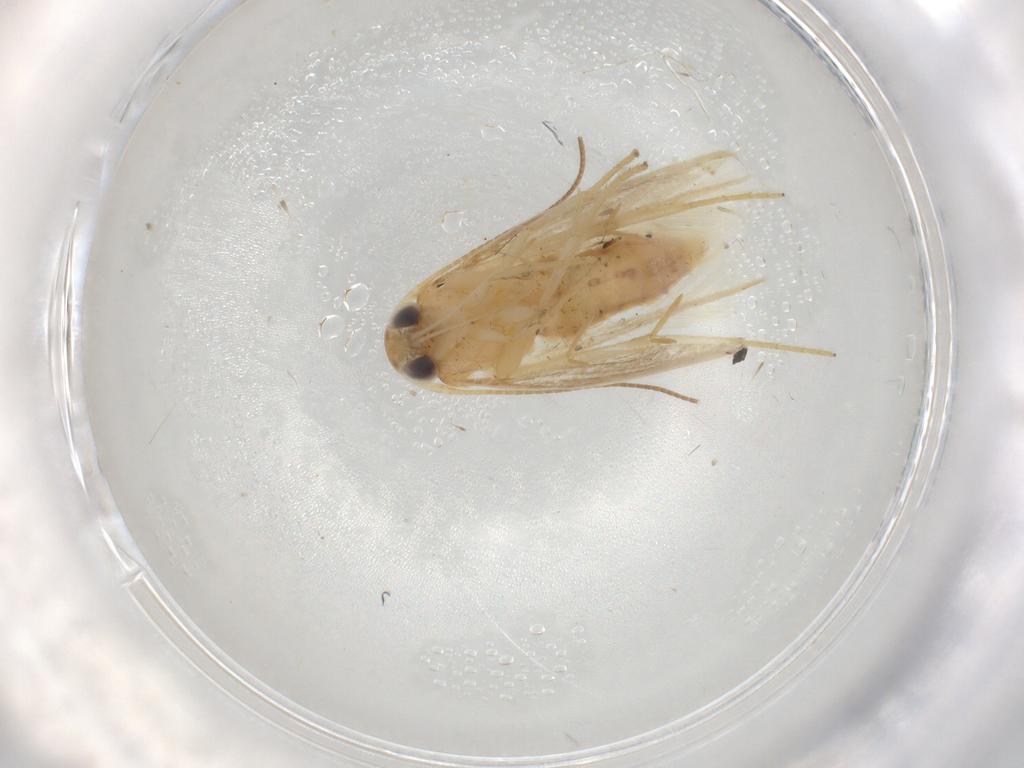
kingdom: Animalia
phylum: Arthropoda
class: Insecta
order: Lepidoptera
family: Erebidae
